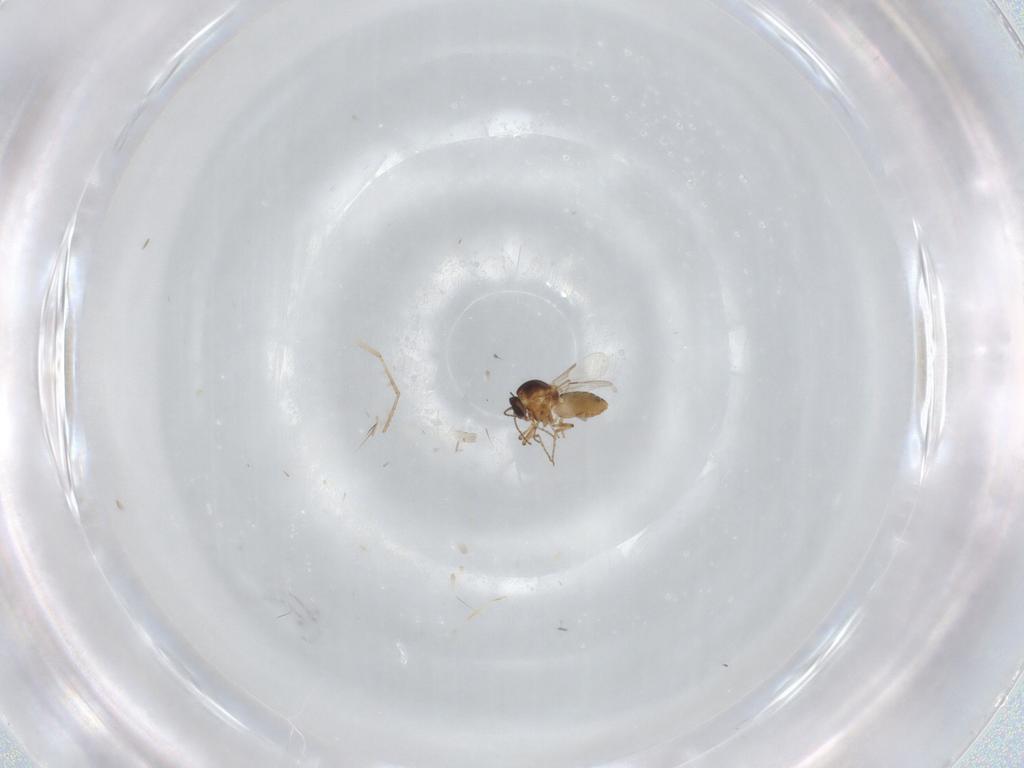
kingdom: Animalia
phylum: Arthropoda
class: Insecta
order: Diptera
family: Psychodidae
